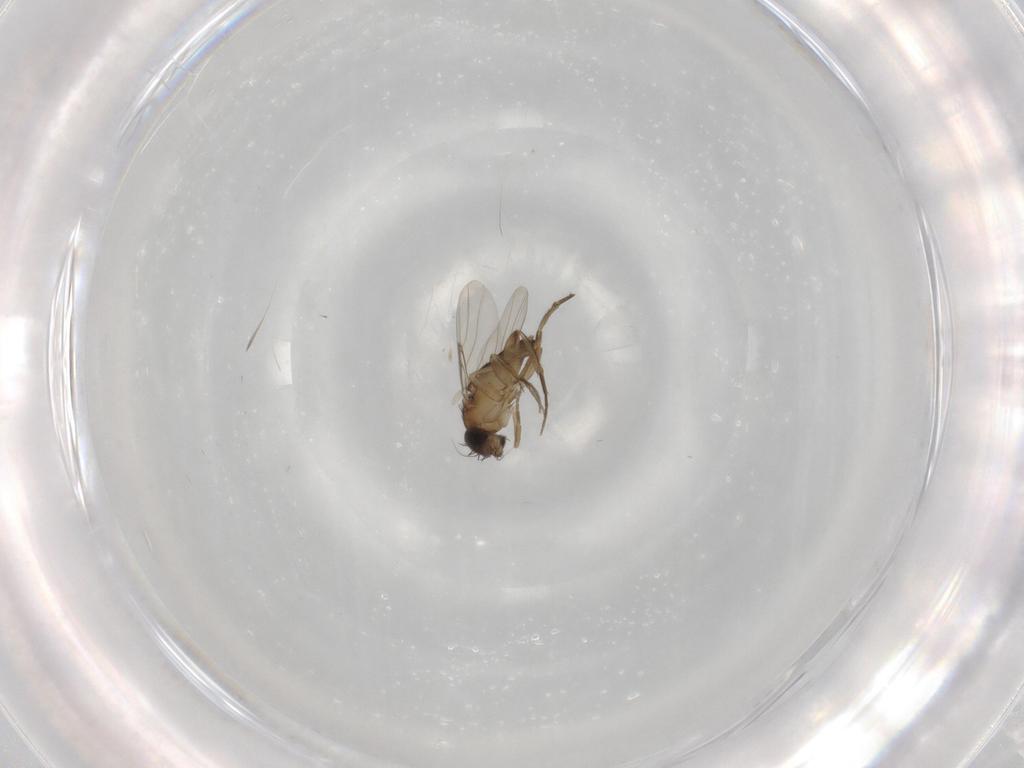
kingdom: Animalia
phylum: Arthropoda
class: Insecta
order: Diptera
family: Phoridae
